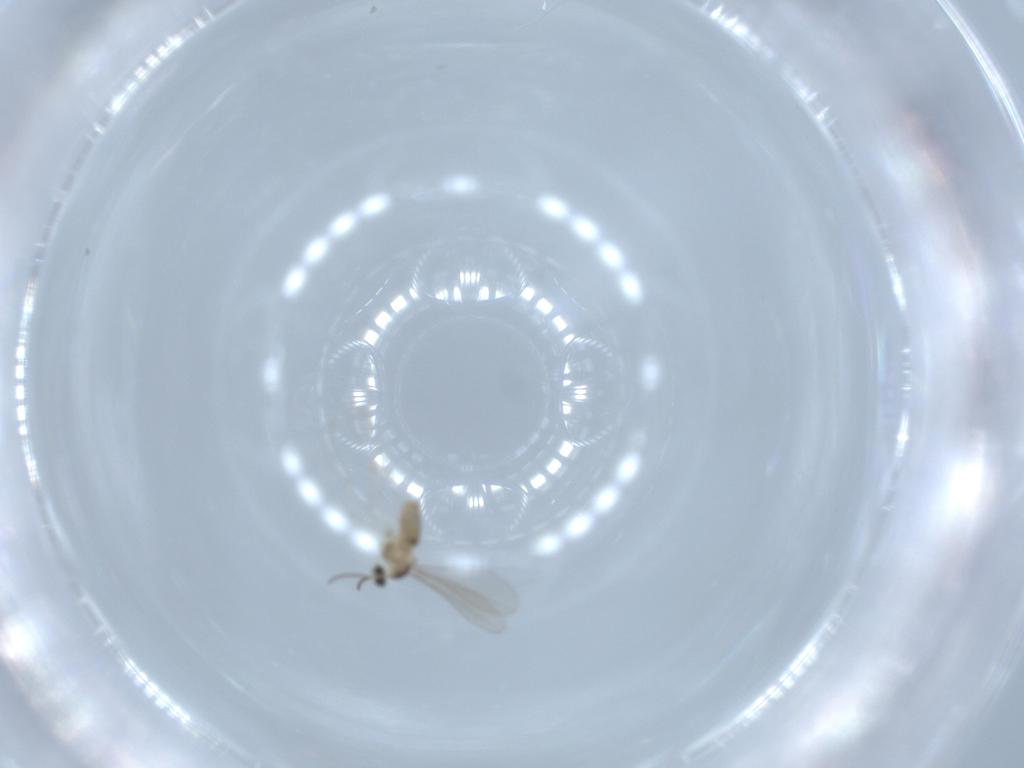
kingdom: Animalia
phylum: Arthropoda
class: Insecta
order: Diptera
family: Cecidomyiidae
